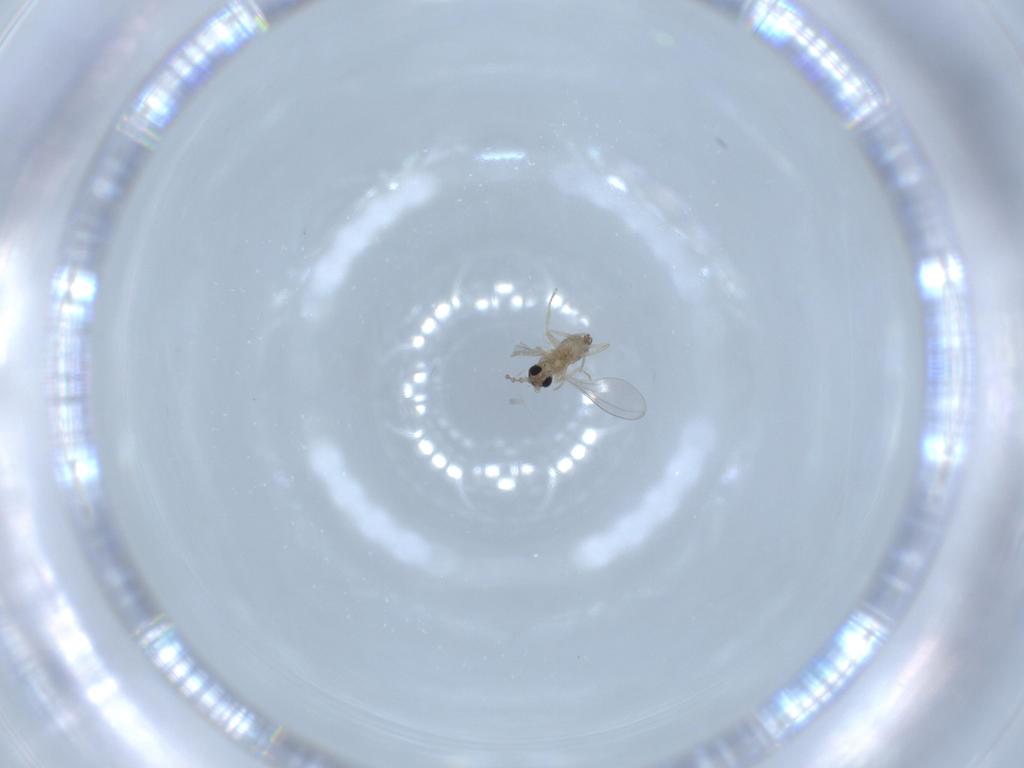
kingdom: Animalia
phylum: Arthropoda
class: Insecta
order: Diptera
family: Cecidomyiidae
